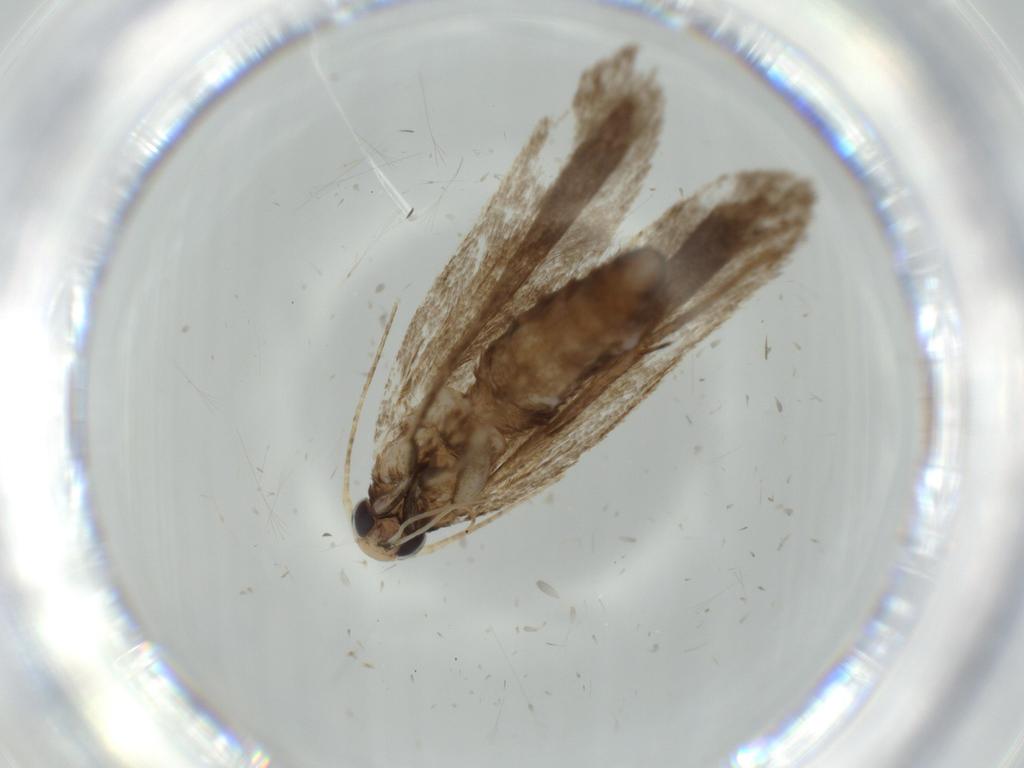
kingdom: Animalia
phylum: Arthropoda
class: Insecta
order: Lepidoptera
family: Tineidae
